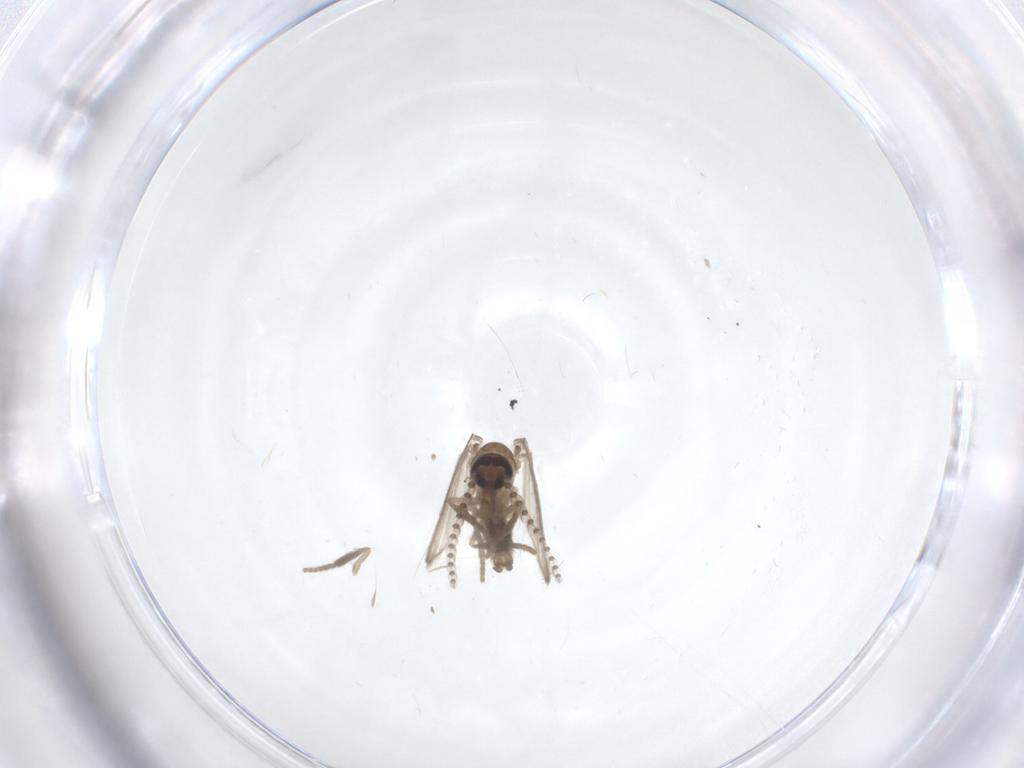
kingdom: Animalia
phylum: Arthropoda
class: Insecta
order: Diptera
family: Cecidomyiidae
